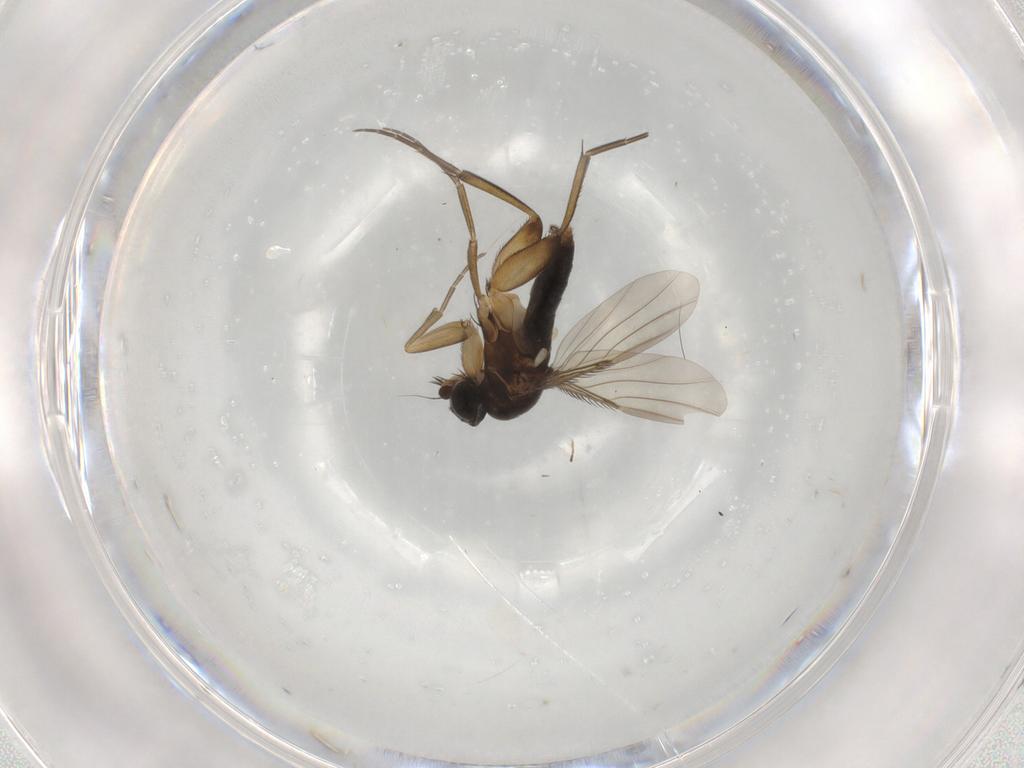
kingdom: Animalia
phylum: Arthropoda
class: Insecta
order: Diptera
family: Phoridae
